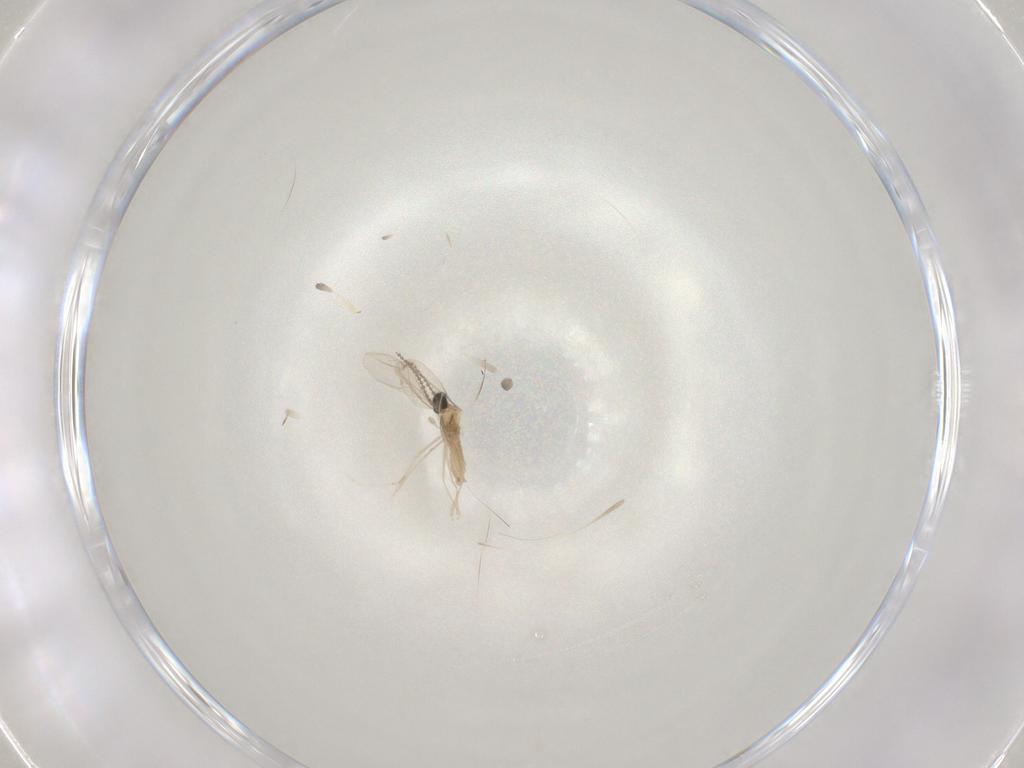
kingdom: Animalia
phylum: Arthropoda
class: Insecta
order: Diptera
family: Cecidomyiidae
